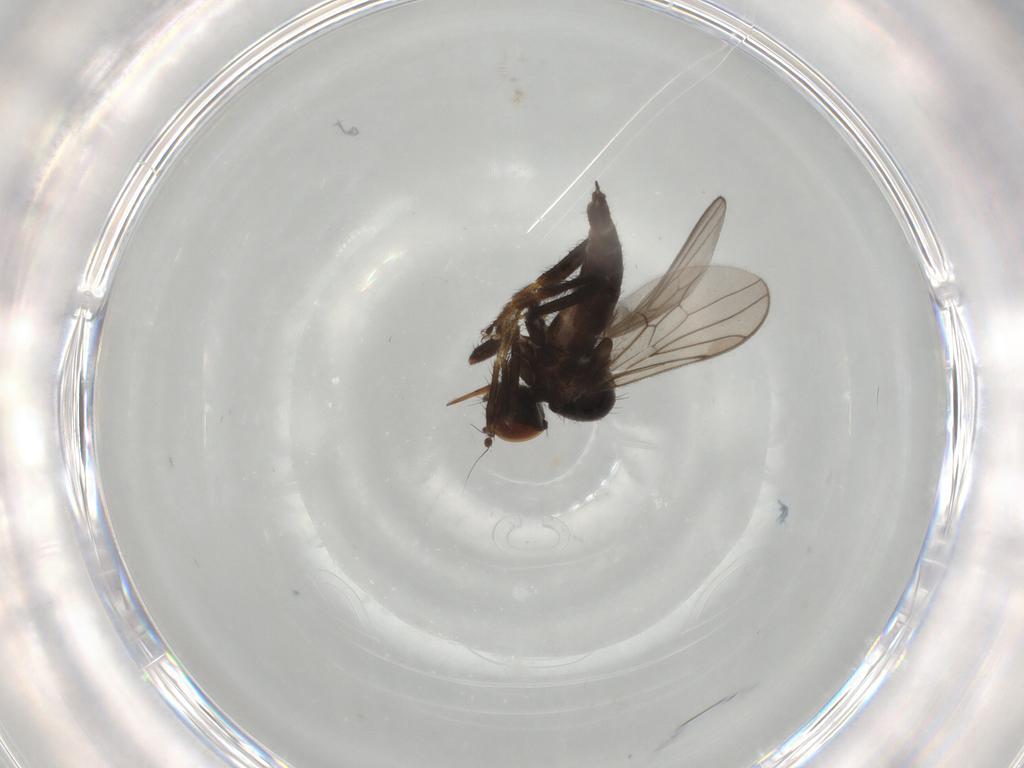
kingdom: Animalia
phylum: Arthropoda
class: Insecta
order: Diptera
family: Hybotidae
